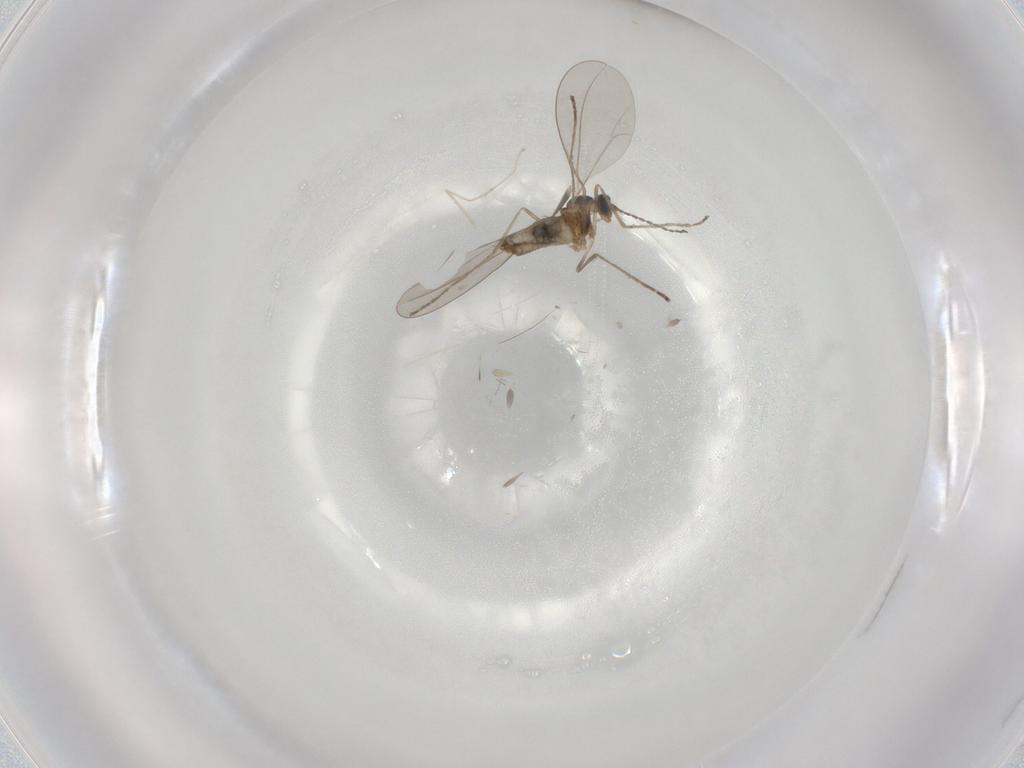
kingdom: Animalia
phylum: Arthropoda
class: Insecta
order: Diptera
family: Cecidomyiidae
